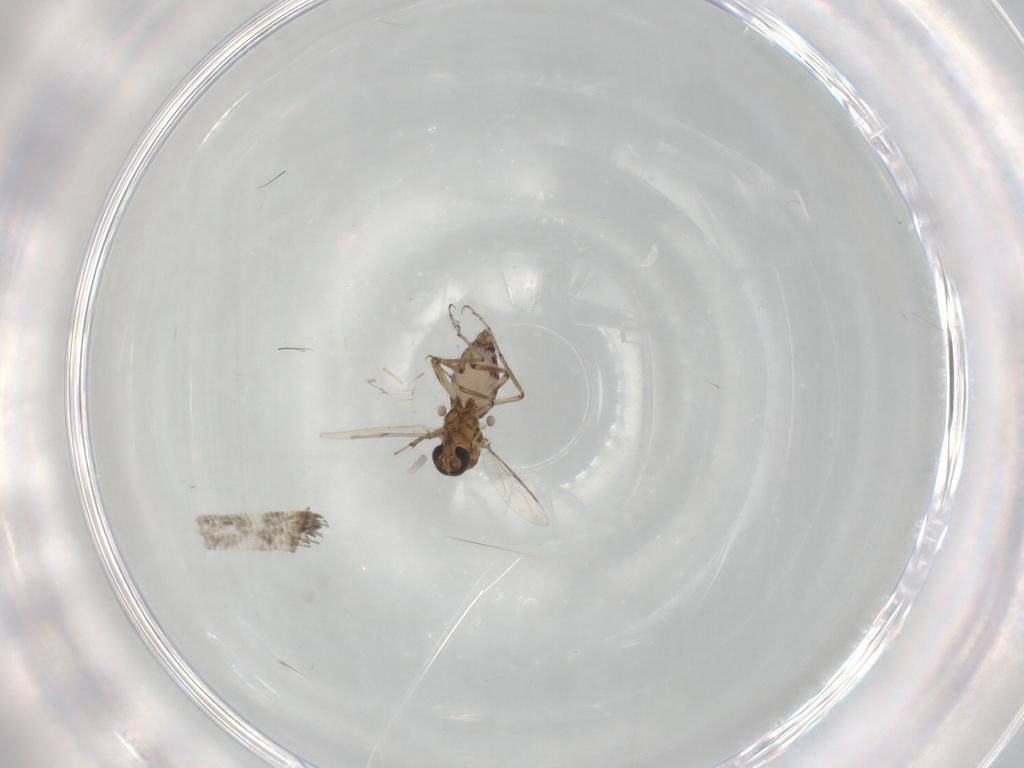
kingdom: Animalia
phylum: Arthropoda
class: Insecta
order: Diptera
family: Ceratopogonidae
